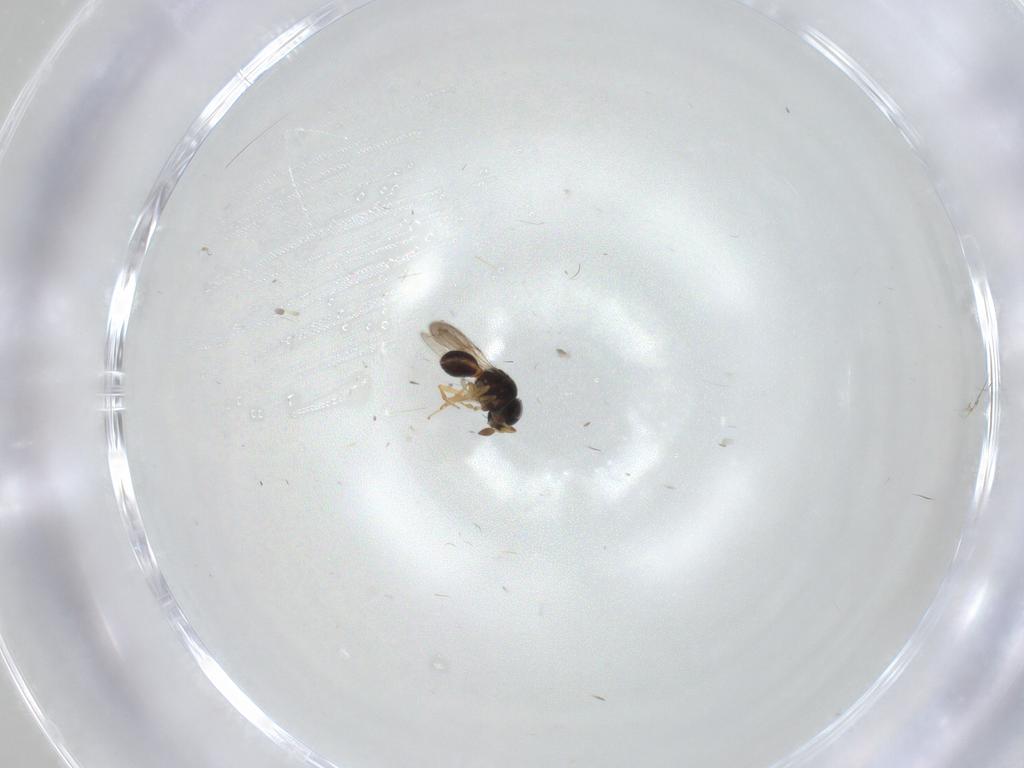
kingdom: Animalia
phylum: Arthropoda
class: Insecta
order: Hymenoptera
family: Scelionidae
